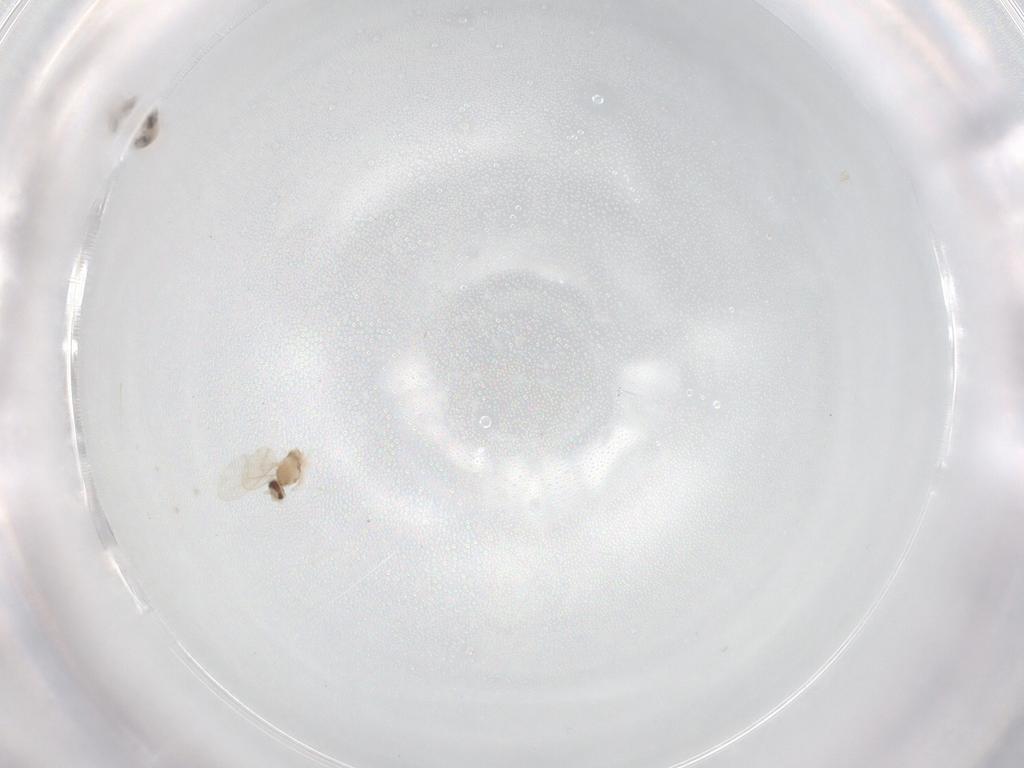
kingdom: Animalia
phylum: Arthropoda
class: Insecta
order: Diptera
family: Cecidomyiidae
